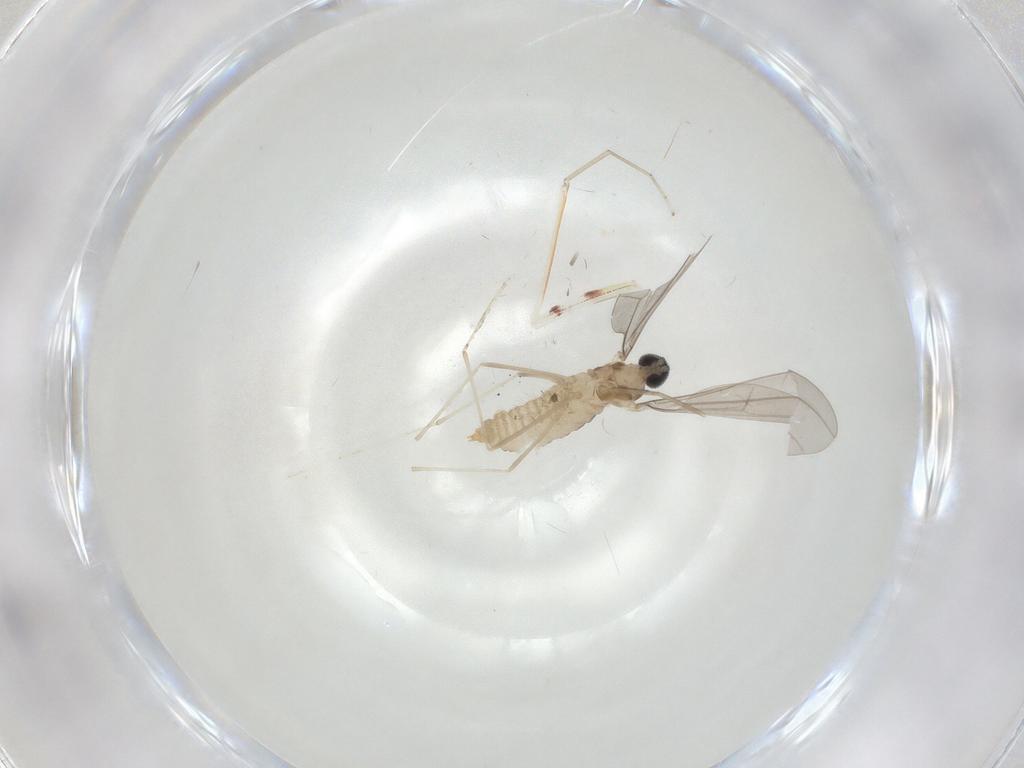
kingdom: Animalia
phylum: Arthropoda
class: Insecta
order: Diptera
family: Cecidomyiidae
